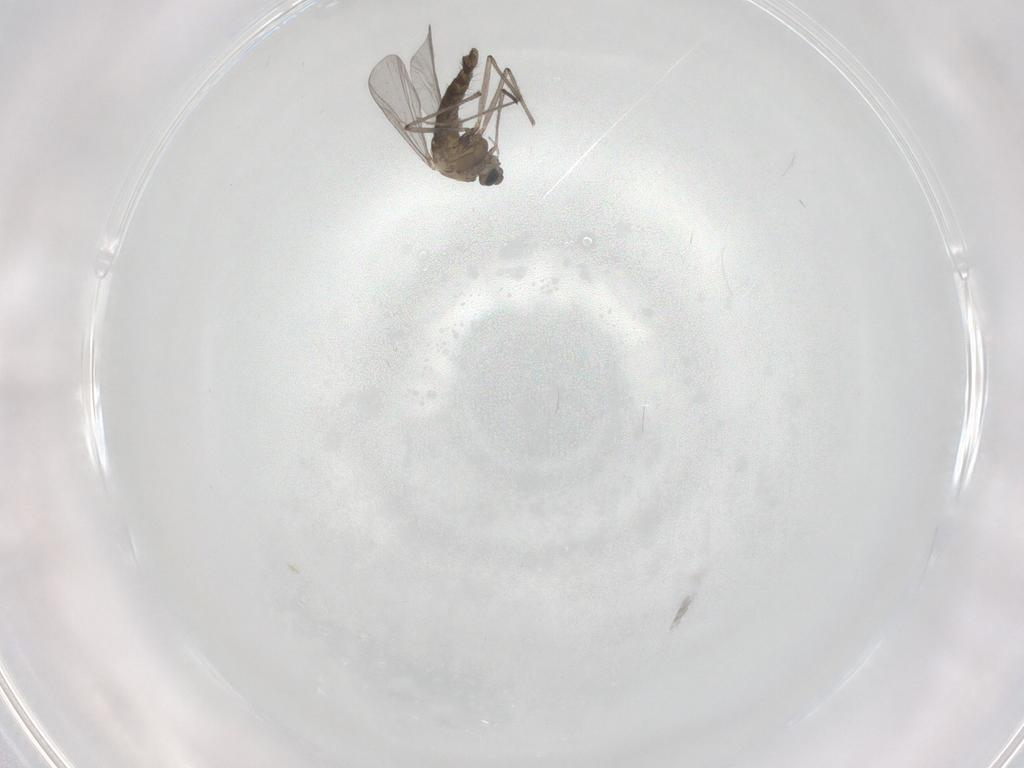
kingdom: Animalia
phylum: Arthropoda
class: Insecta
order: Diptera
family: Chironomidae
